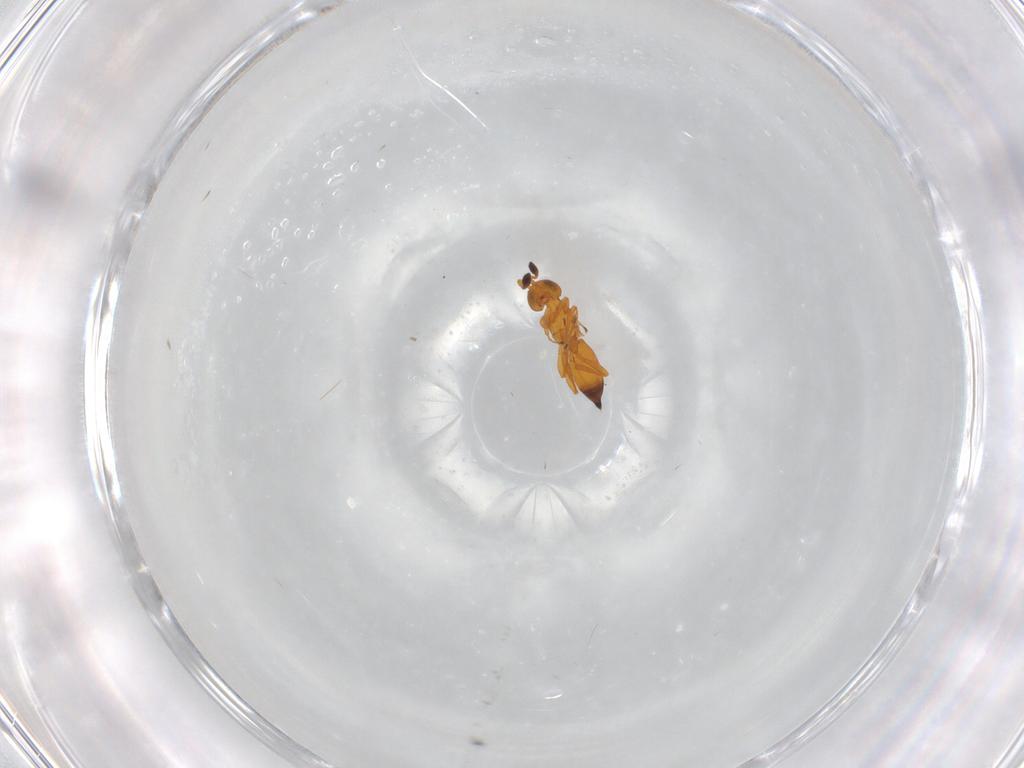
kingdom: Animalia
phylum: Arthropoda
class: Insecta
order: Hymenoptera
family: Platygastridae
